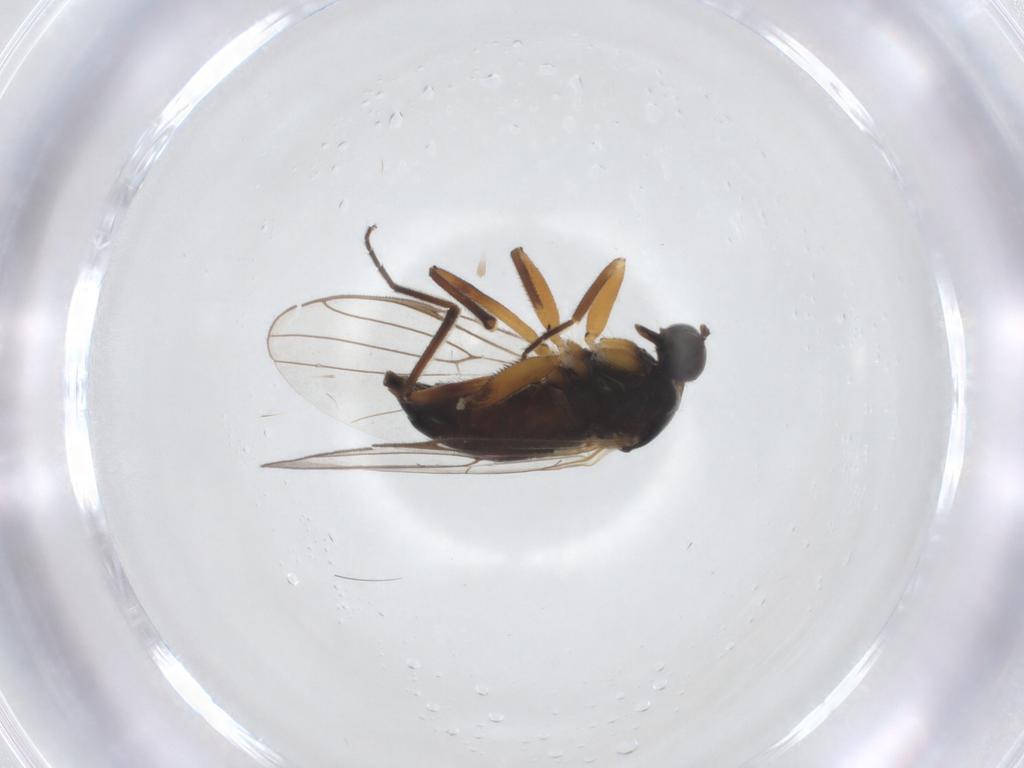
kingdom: Animalia
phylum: Arthropoda
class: Insecta
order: Diptera
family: Hybotidae
